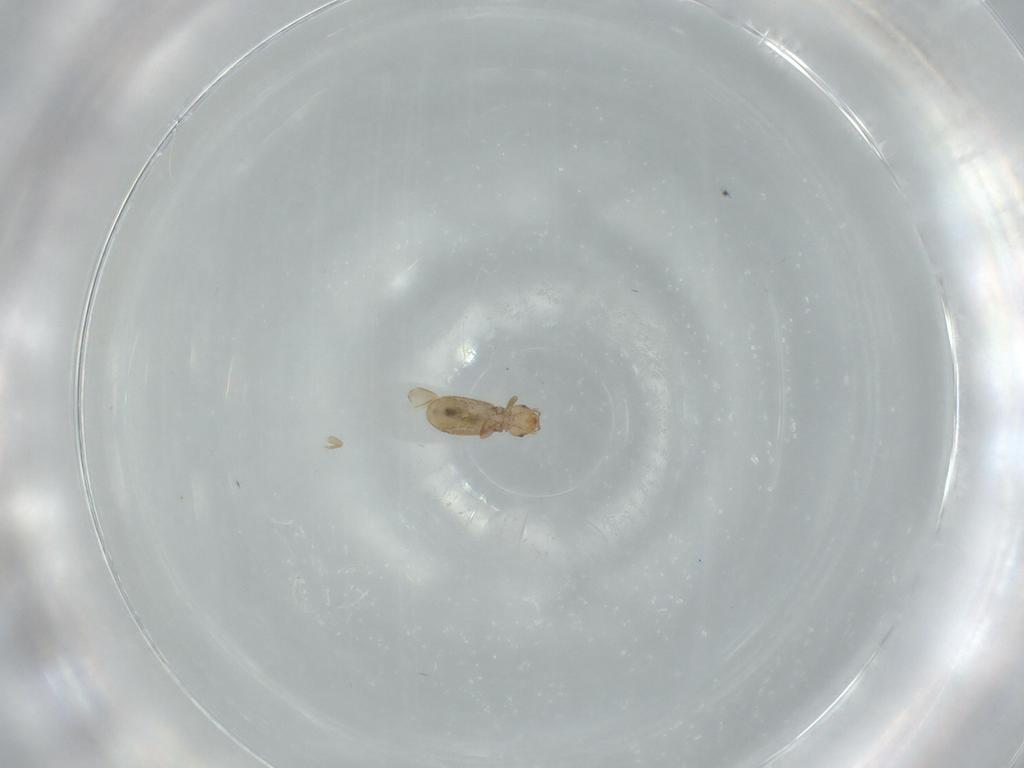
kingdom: Animalia
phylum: Arthropoda
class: Insecta
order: Psocodea
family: Liposcelididae
